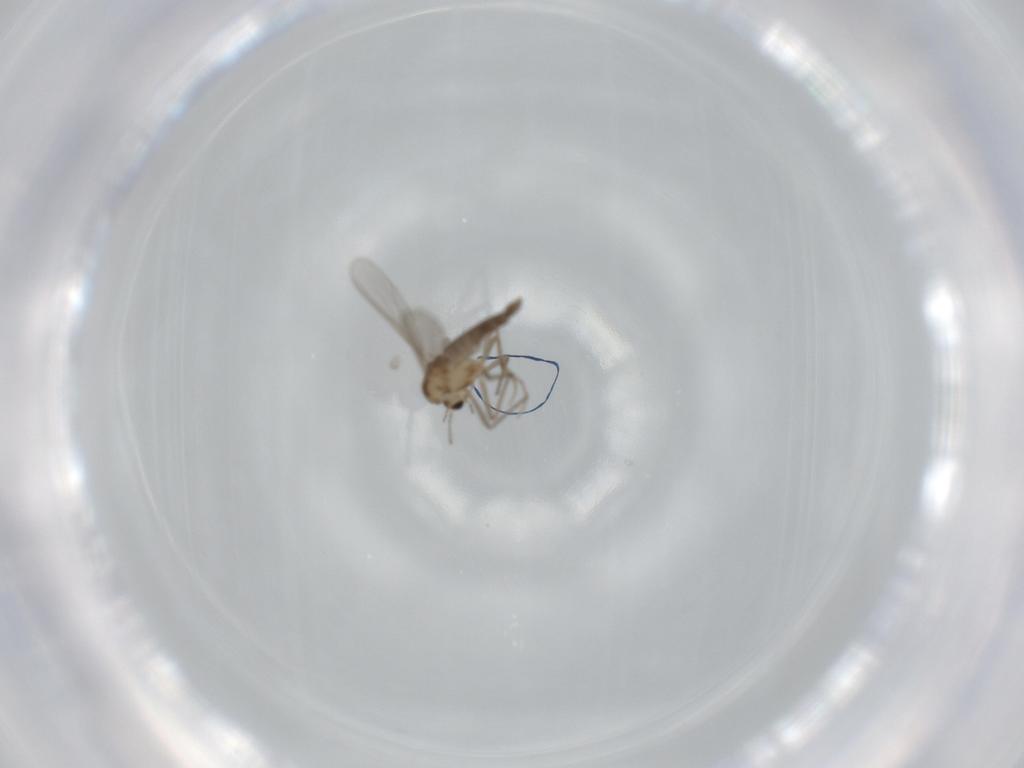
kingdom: Animalia
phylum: Arthropoda
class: Insecta
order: Diptera
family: Chironomidae
